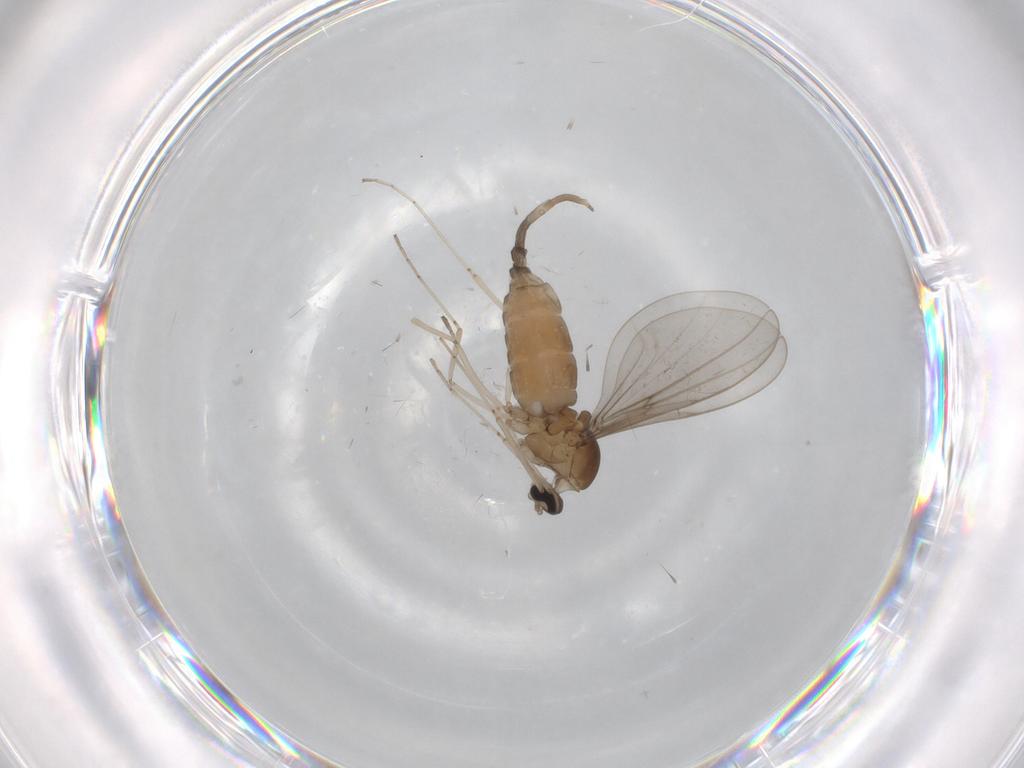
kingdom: Animalia
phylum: Arthropoda
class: Insecta
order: Diptera
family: Cecidomyiidae
